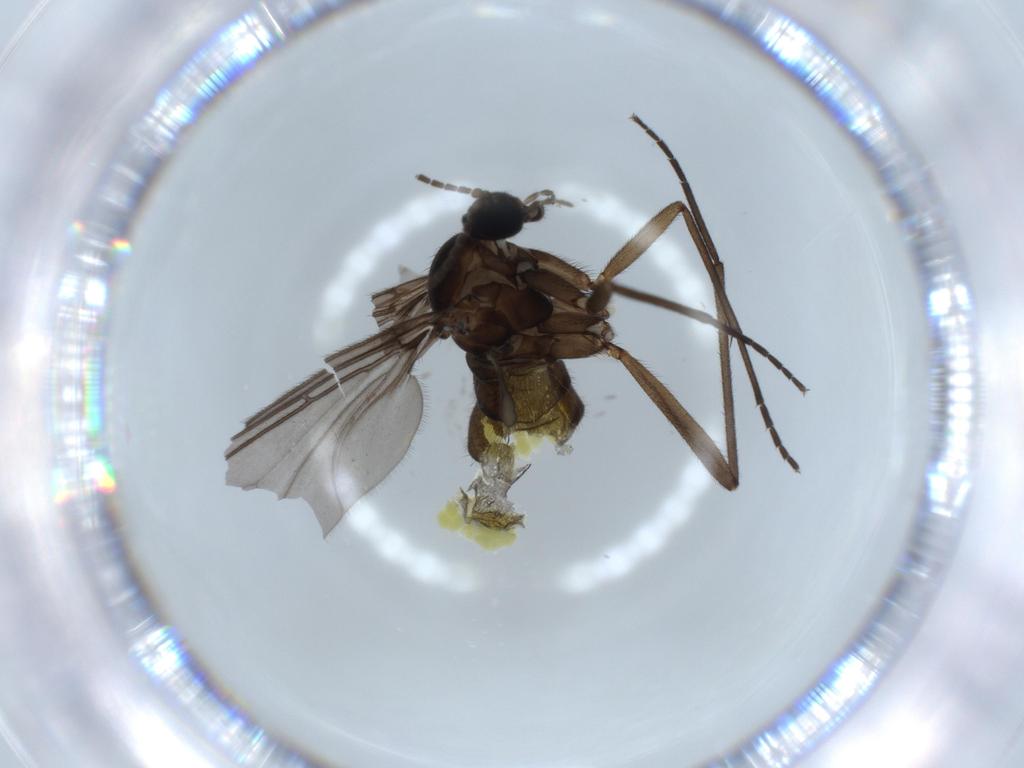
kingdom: Animalia
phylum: Arthropoda
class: Insecta
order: Diptera
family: Sciaridae
